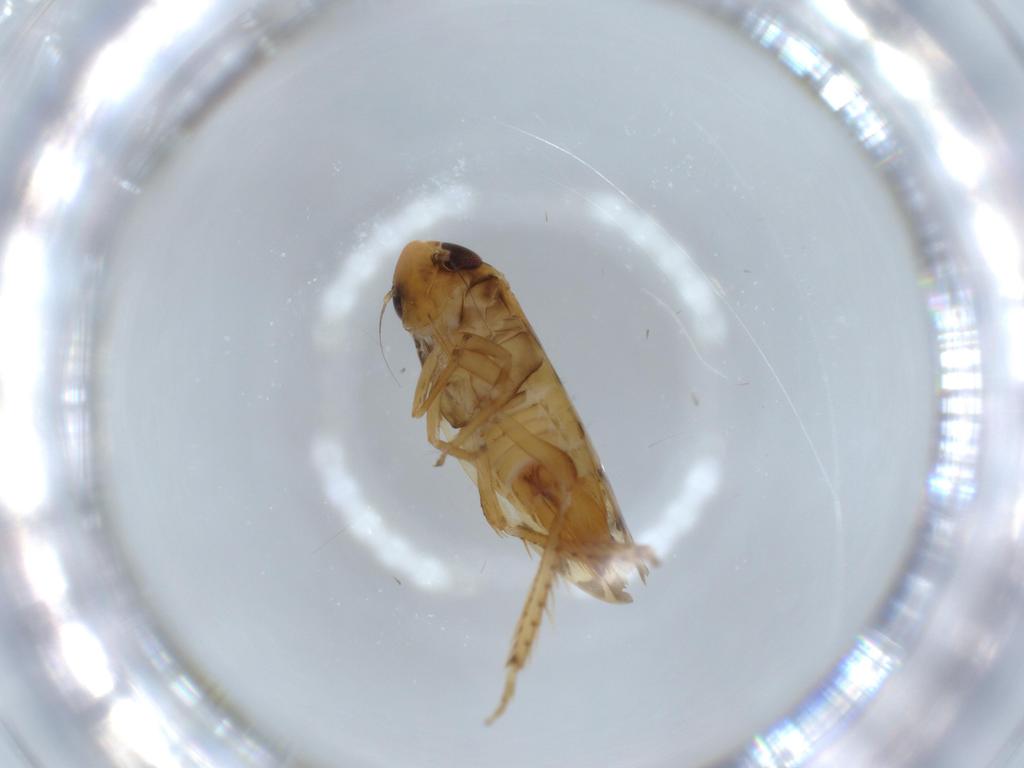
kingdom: Animalia
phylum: Arthropoda
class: Insecta
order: Hemiptera
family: Cicadellidae
